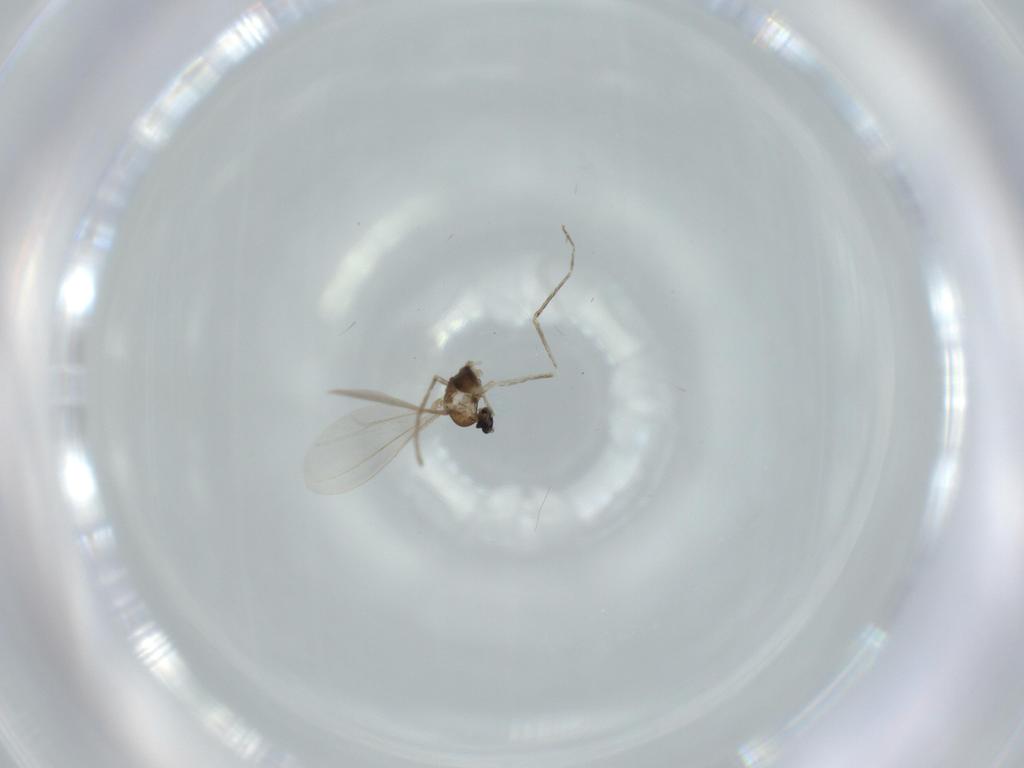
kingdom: Animalia
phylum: Arthropoda
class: Insecta
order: Diptera
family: Cecidomyiidae
